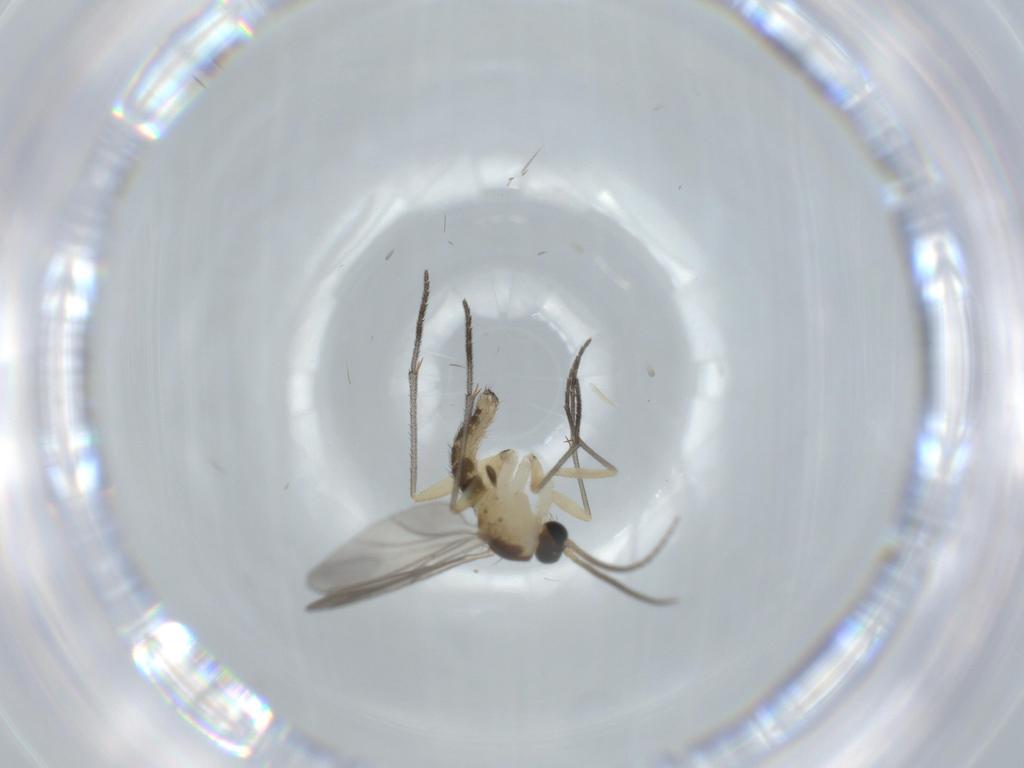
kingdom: Animalia
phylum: Arthropoda
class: Insecta
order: Diptera
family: Sciaridae
